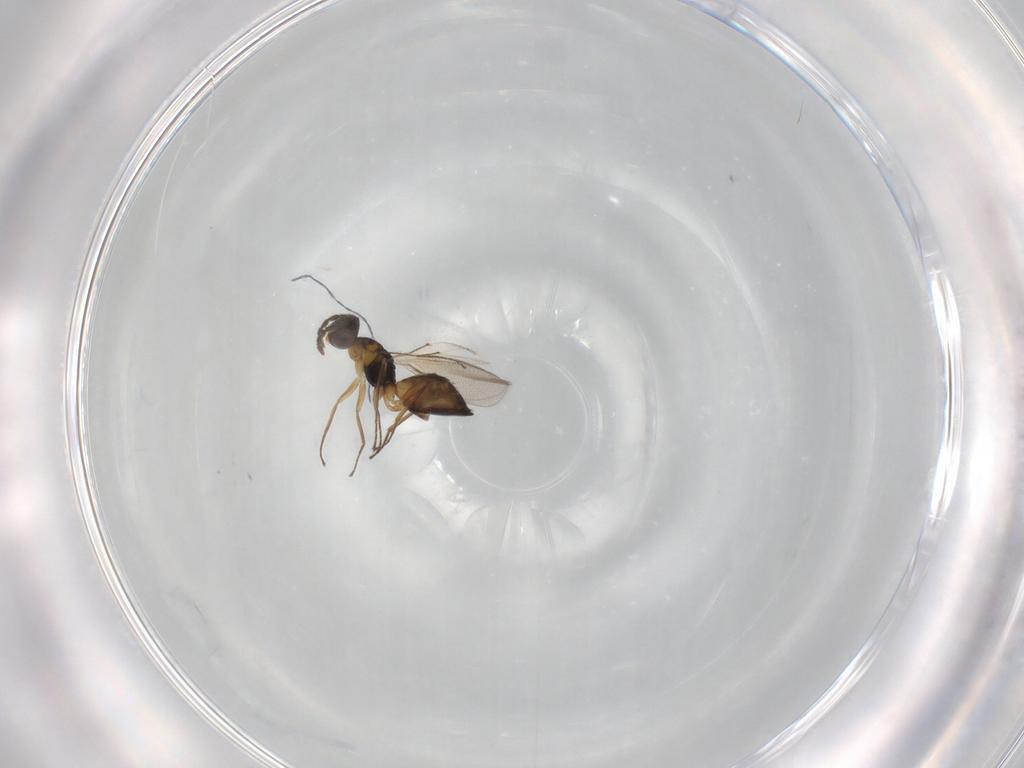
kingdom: Animalia
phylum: Arthropoda
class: Insecta
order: Hymenoptera
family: Eulophidae
